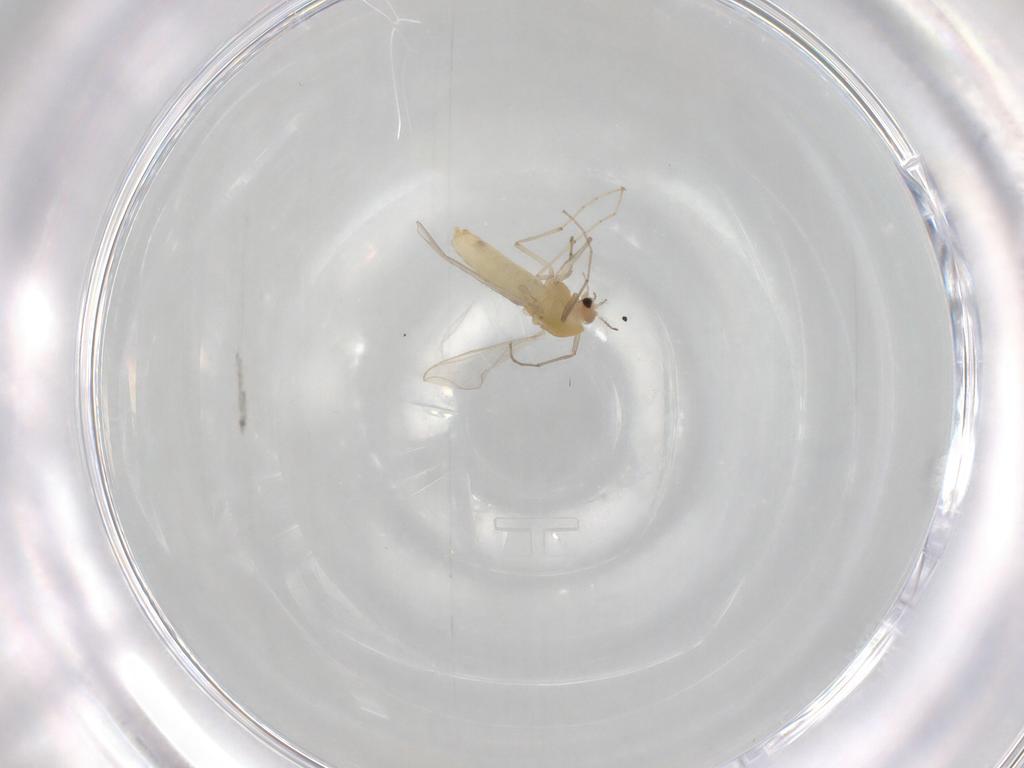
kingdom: Animalia
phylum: Arthropoda
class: Insecta
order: Diptera
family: Chironomidae
